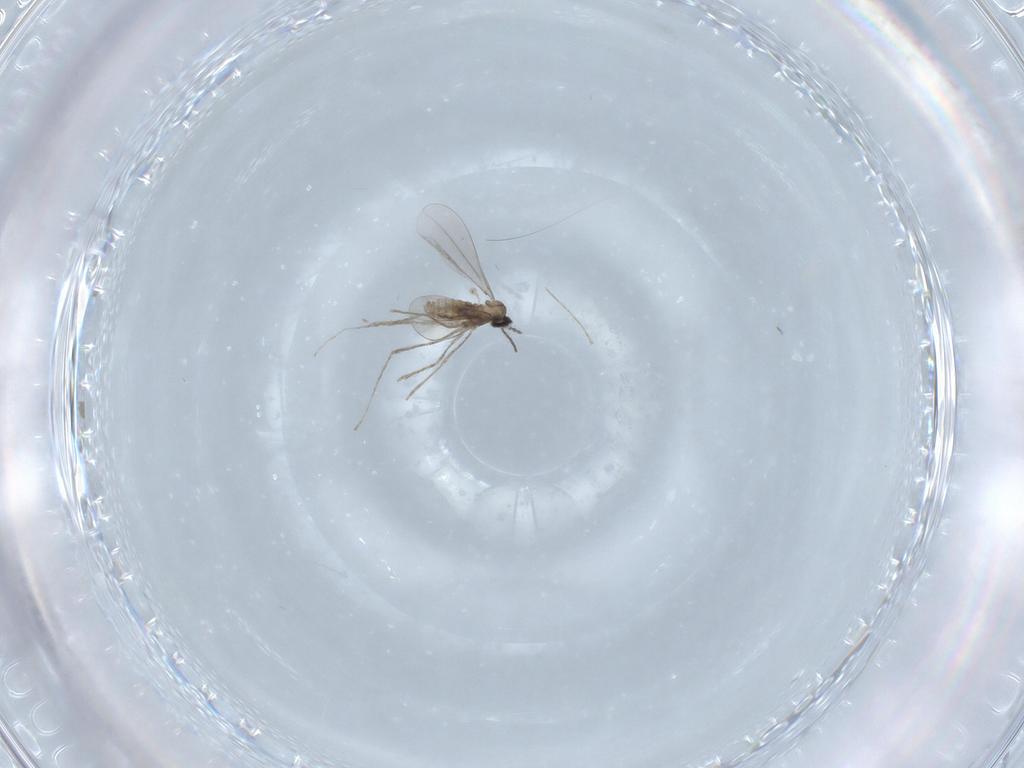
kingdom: Animalia
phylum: Arthropoda
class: Insecta
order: Diptera
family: Cecidomyiidae
